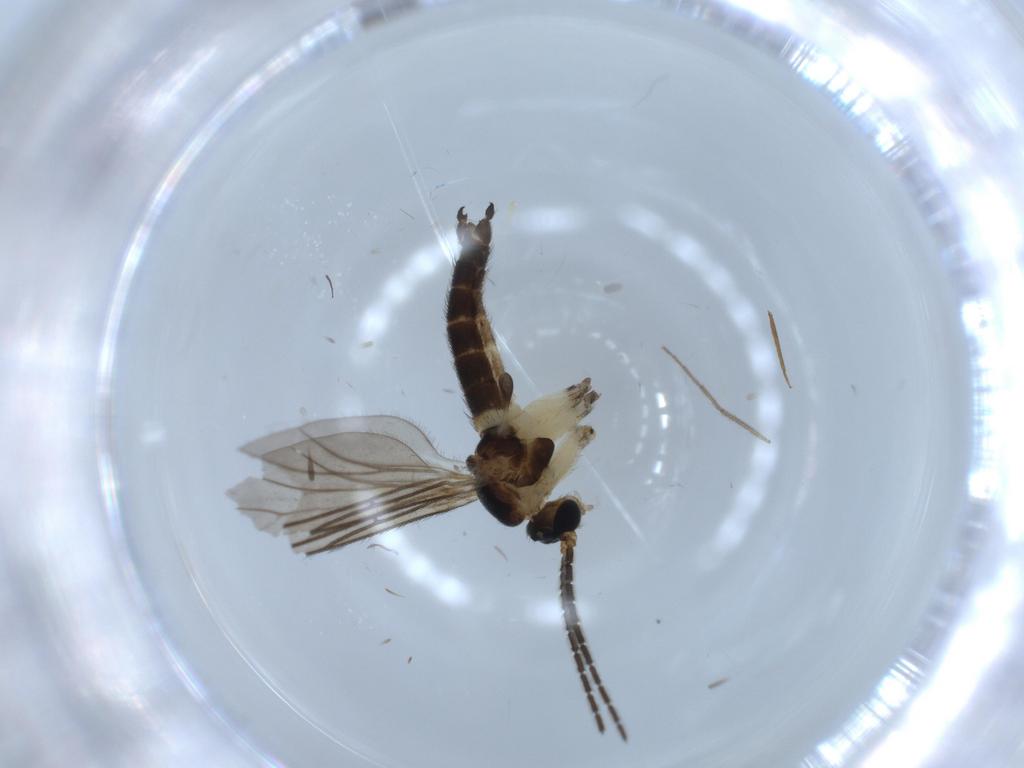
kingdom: Animalia
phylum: Arthropoda
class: Insecta
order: Diptera
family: Sciaridae
